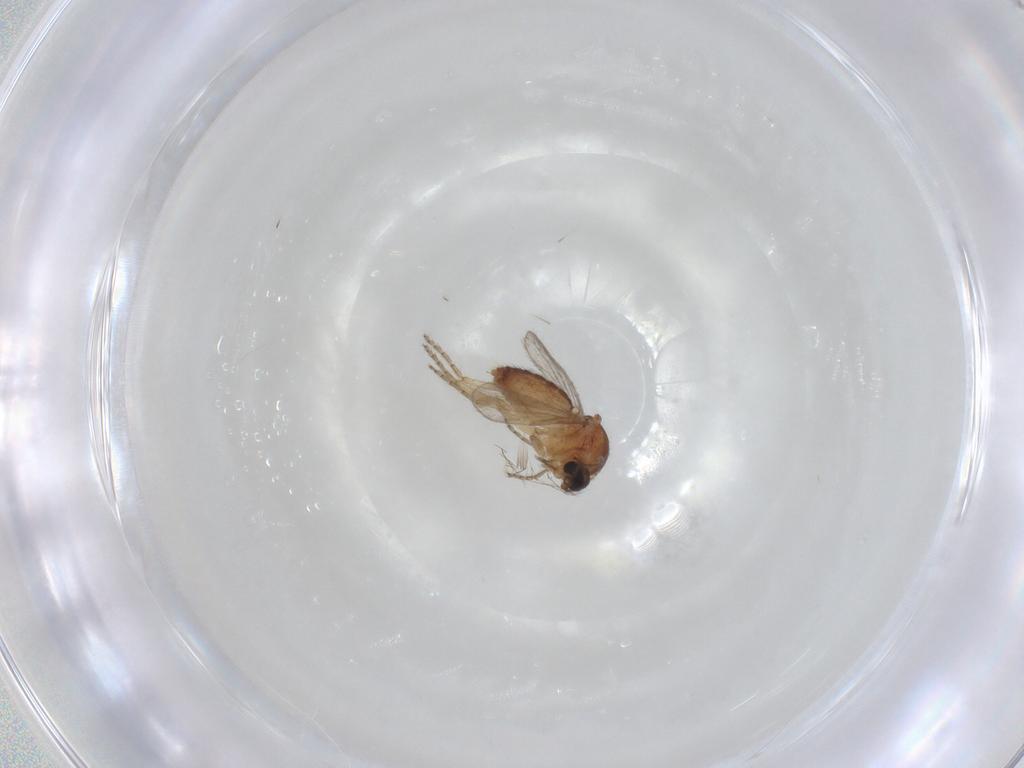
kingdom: Animalia
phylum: Arthropoda
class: Insecta
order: Diptera
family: Ceratopogonidae
